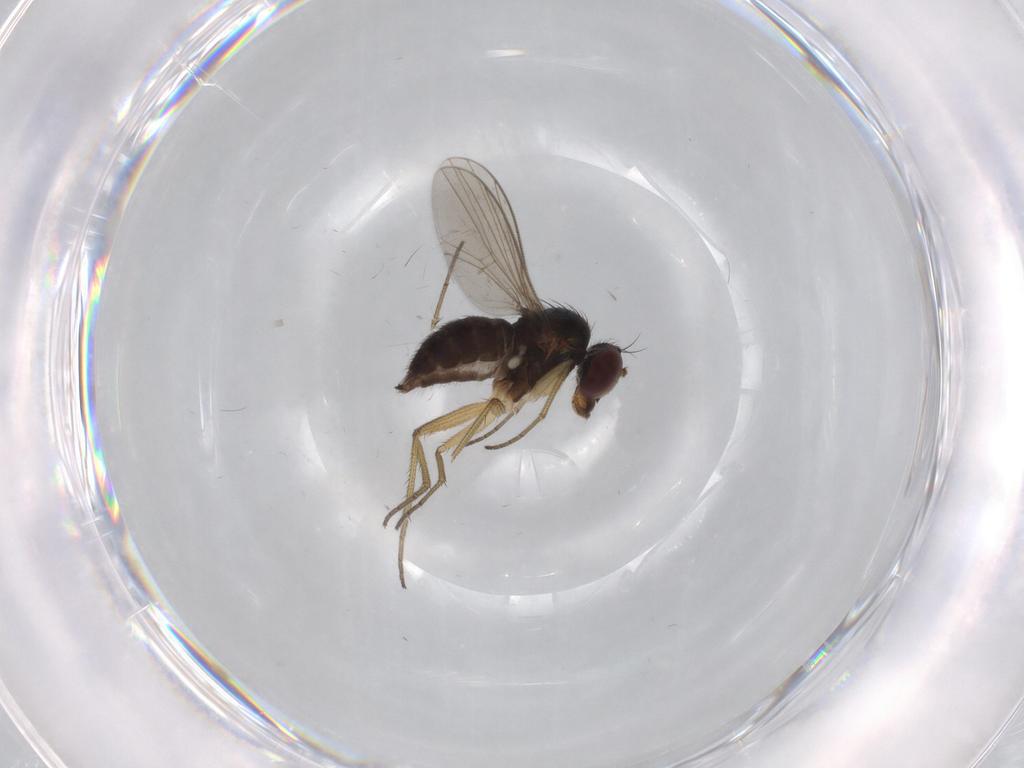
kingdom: Animalia
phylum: Arthropoda
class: Insecta
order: Diptera
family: Dolichopodidae
